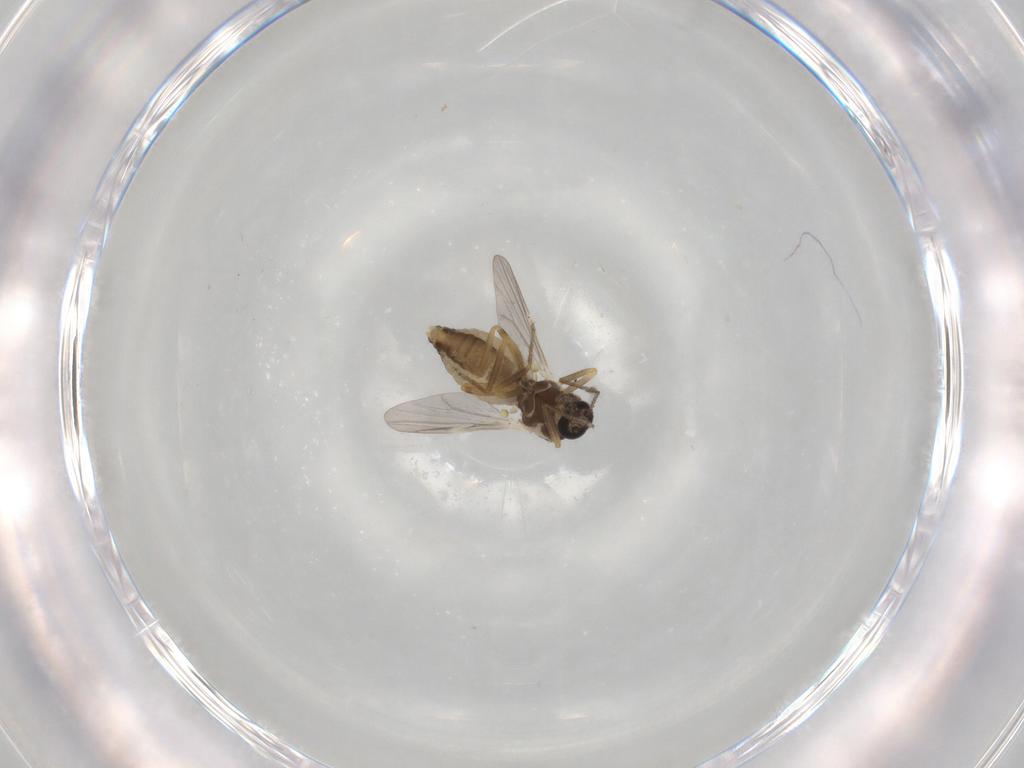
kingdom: Animalia
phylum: Arthropoda
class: Insecta
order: Diptera
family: Ceratopogonidae
